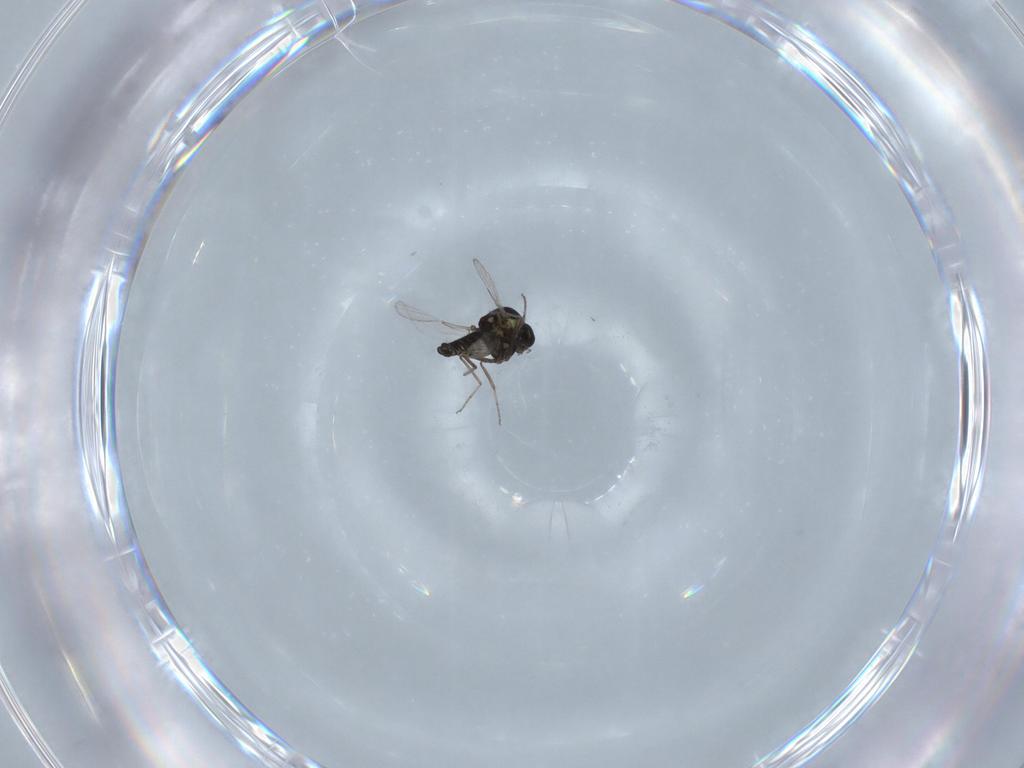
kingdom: Animalia
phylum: Arthropoda
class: Insecta
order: Diptera
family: Ceratopogonidae
